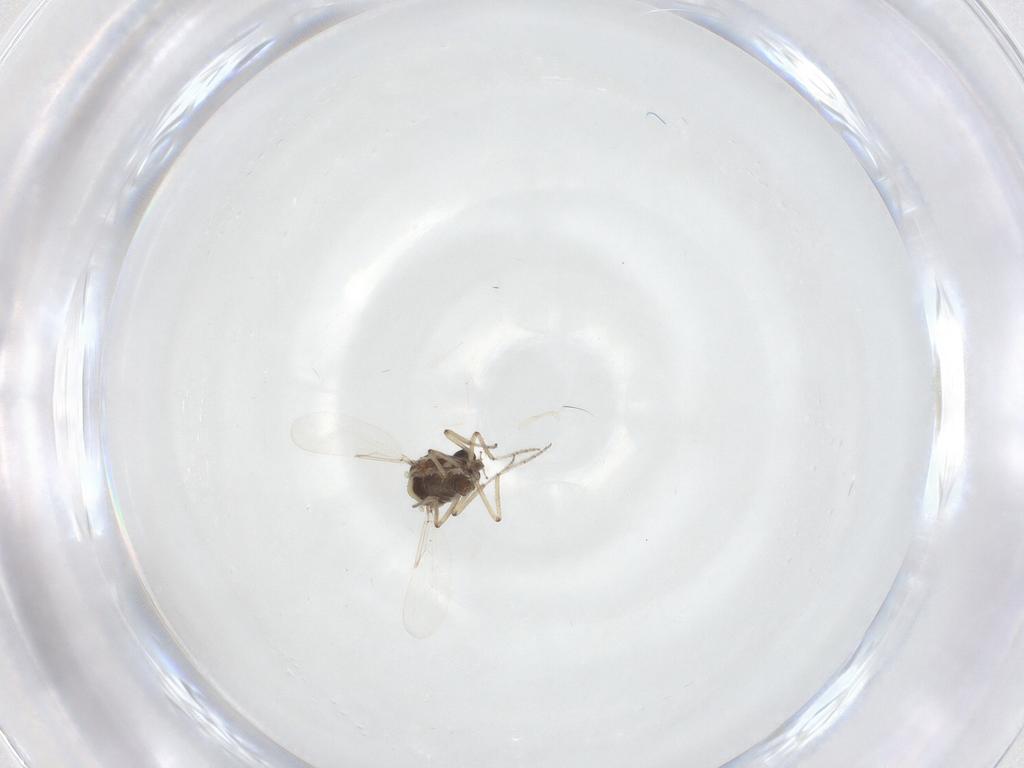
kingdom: Animalia
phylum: Arthropoda
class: Insecta
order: Diptera
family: Ceratopogonidae
